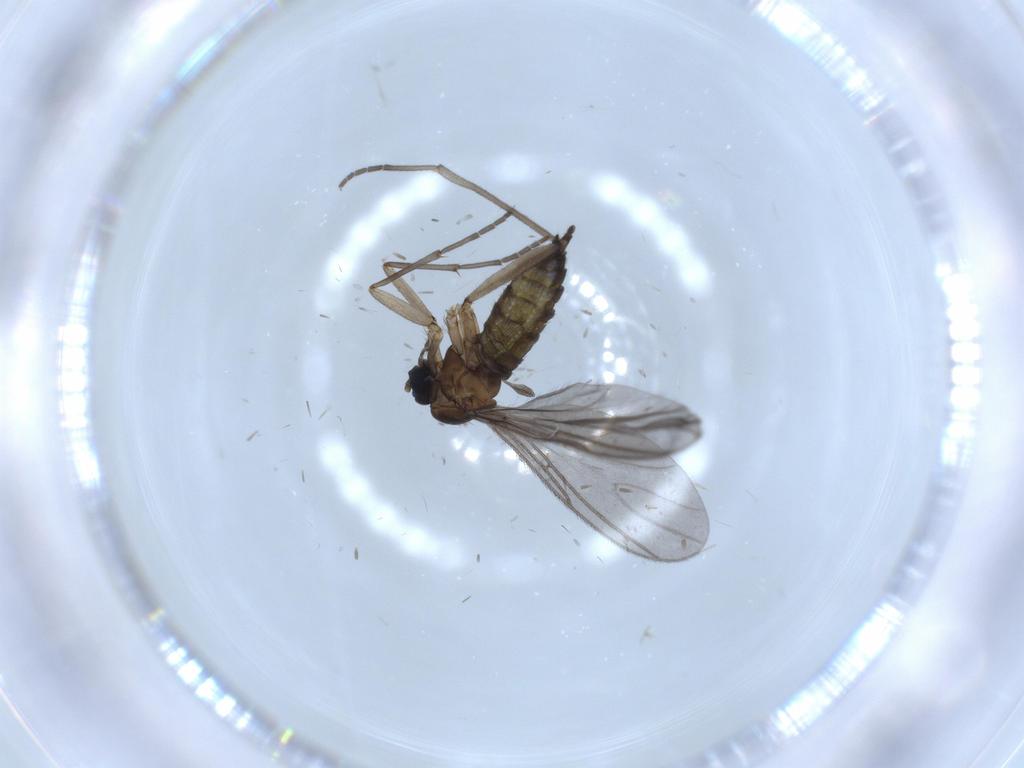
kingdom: Animalia
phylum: Arthropoda
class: Insecta
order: Diptera
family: Sciaridae
